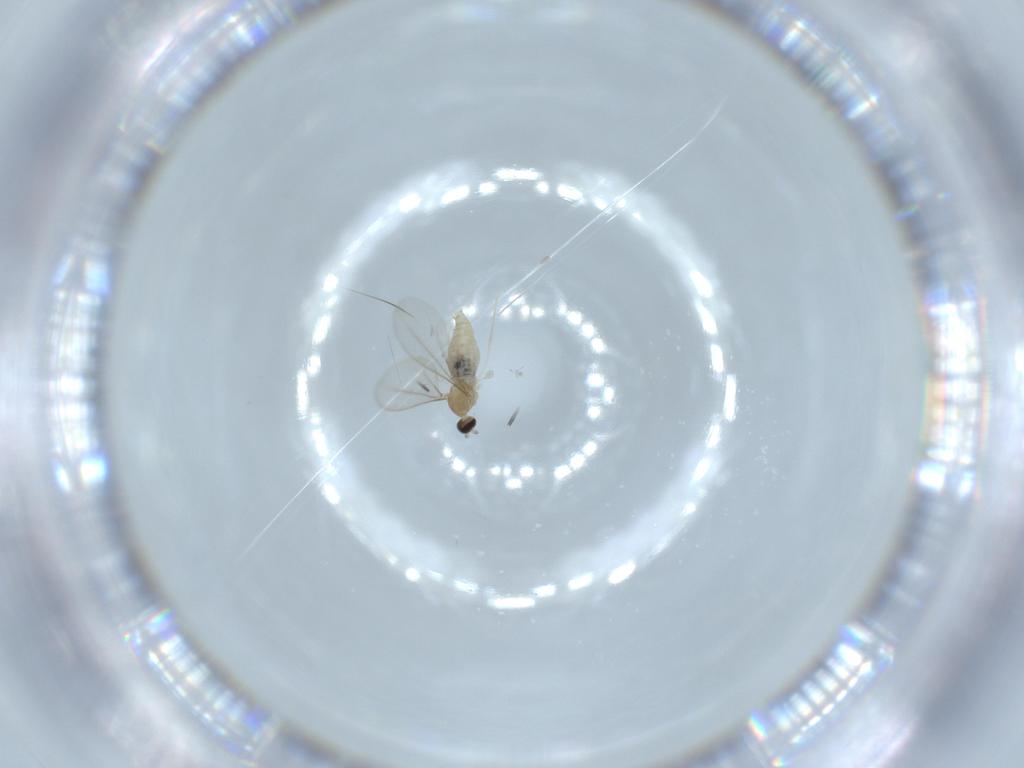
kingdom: Animalia
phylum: Arthropoda
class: Insecta
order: Diptera
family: Cecidomyiidae
